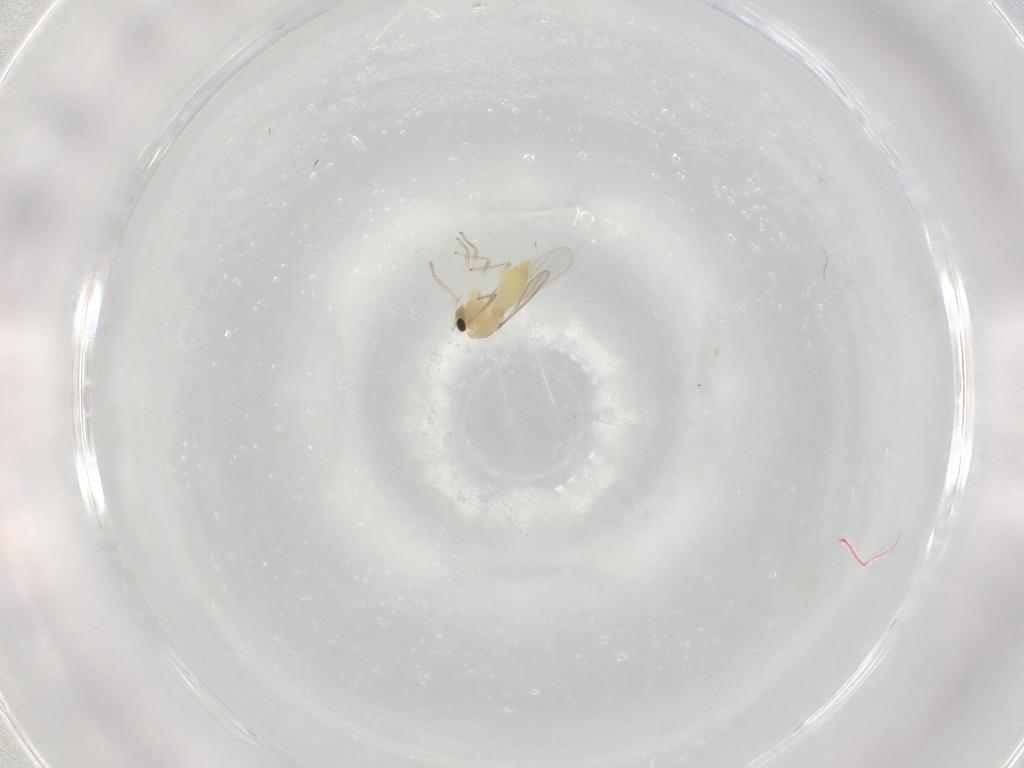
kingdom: Animalia
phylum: Arthropoda
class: Insecta
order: Diptera
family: Chironomidae
